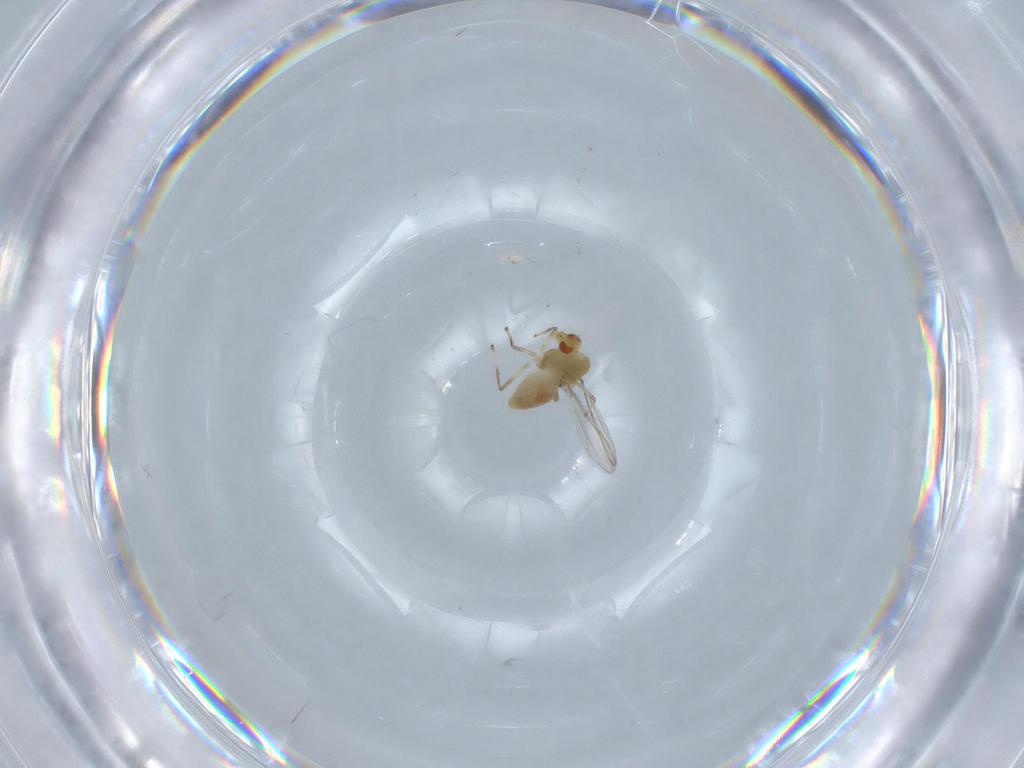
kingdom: Animalia
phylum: Arthropoda
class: Insecta
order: Diptera
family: Chironomidae
